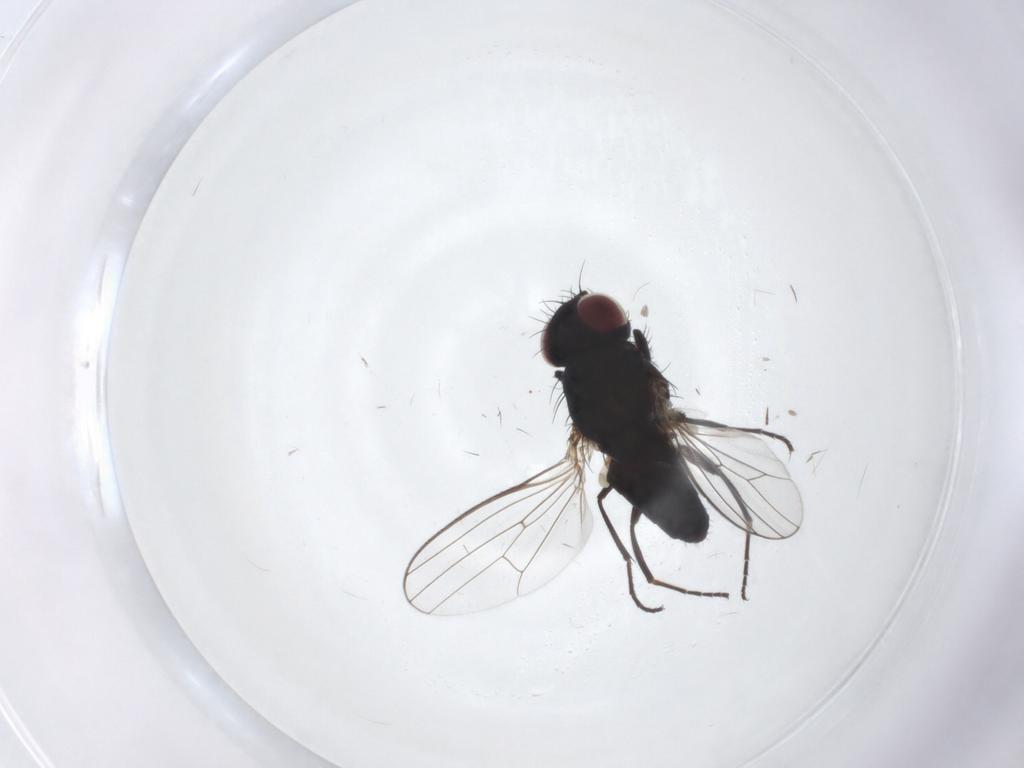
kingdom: Animalia
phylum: Arthropoda
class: Insecta
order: Diptera
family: Carnidae
